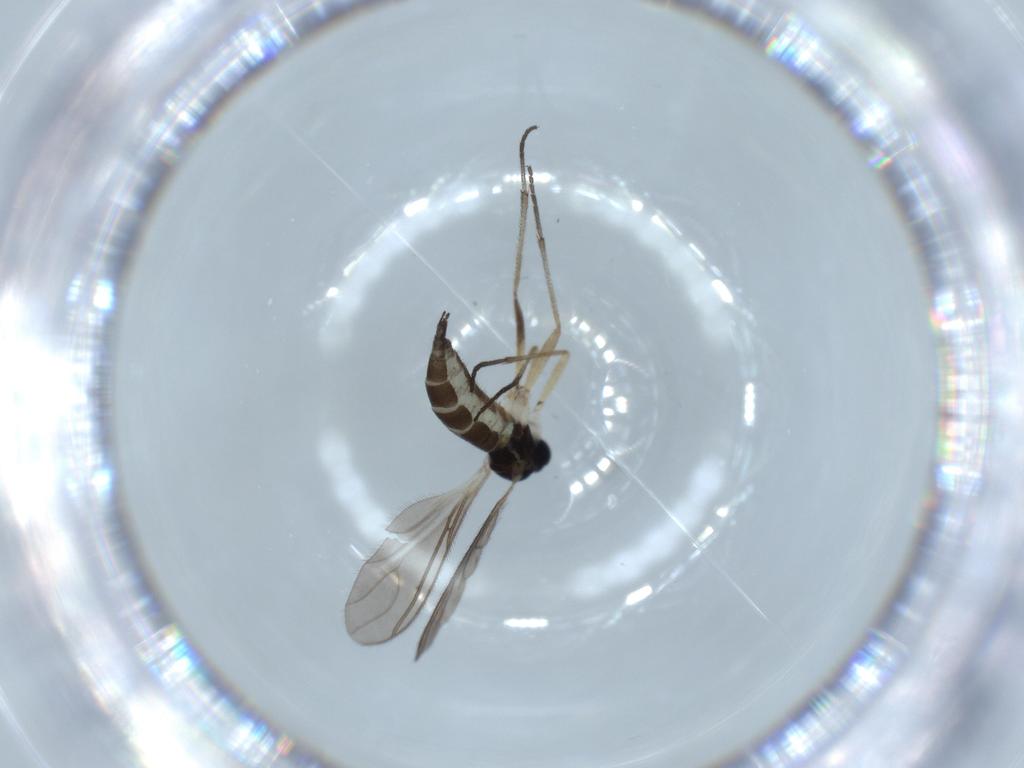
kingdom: Animalia
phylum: Arthropoda
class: Insecta
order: Diptera
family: Sciaridae
